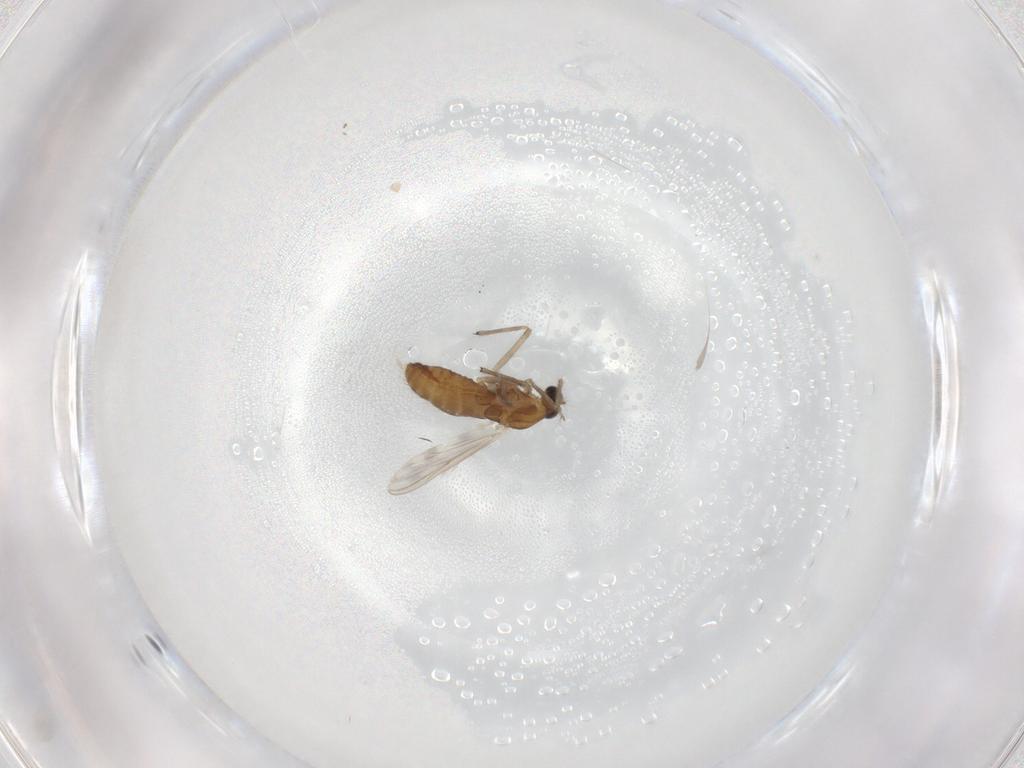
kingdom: Animalia
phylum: Arthropoda
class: Insecta
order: Diptera
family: Chironomidae
